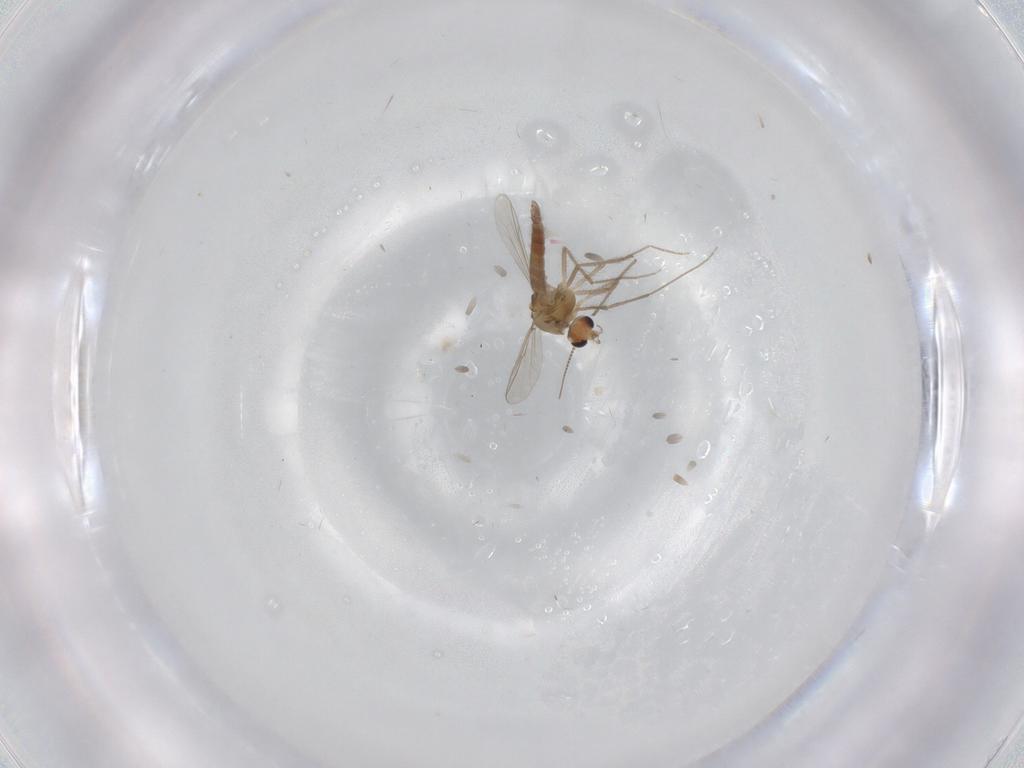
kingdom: Animalia
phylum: Arthropoda
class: Insecta
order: Diptera
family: Chironomidae
